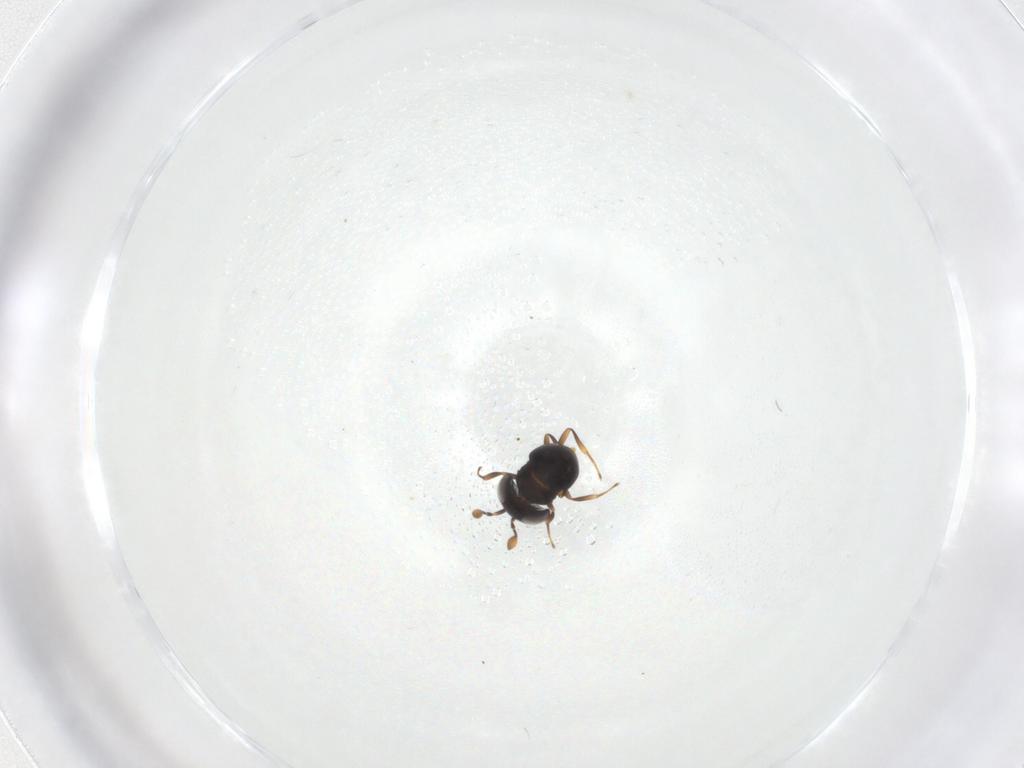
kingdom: Animalia
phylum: Arthropoda
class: Insecta
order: Hymenoptera
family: Scelionidae
